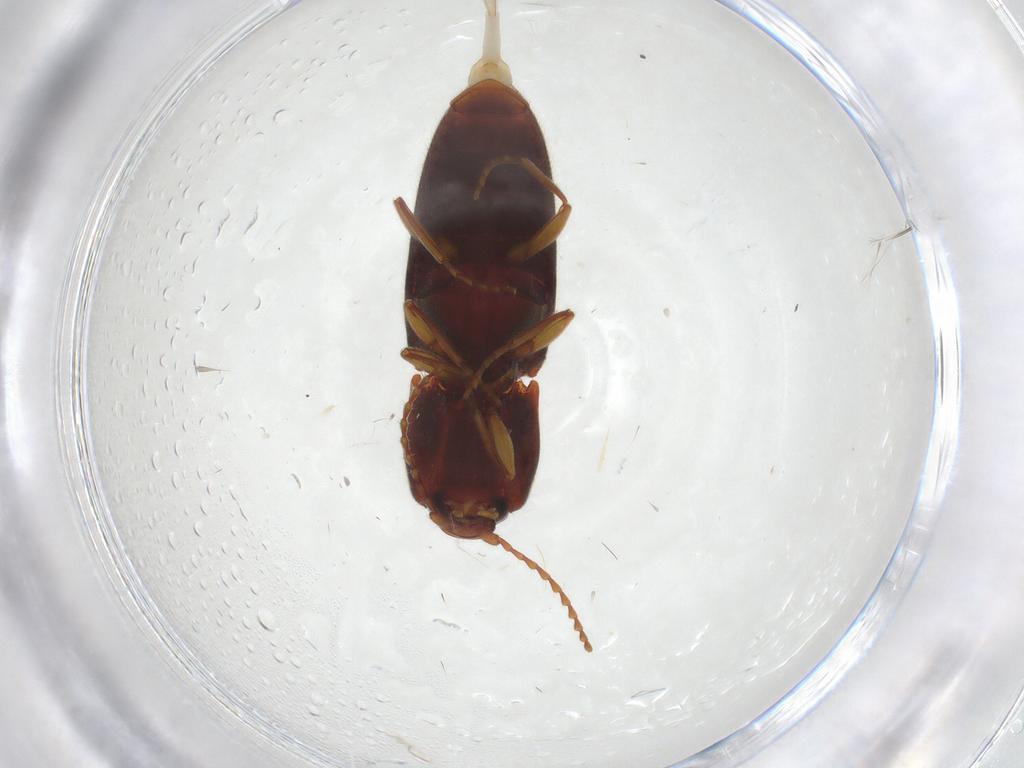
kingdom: Animalia
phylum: Arthropoda
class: Insecta
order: Coleoptera
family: Elateridae
